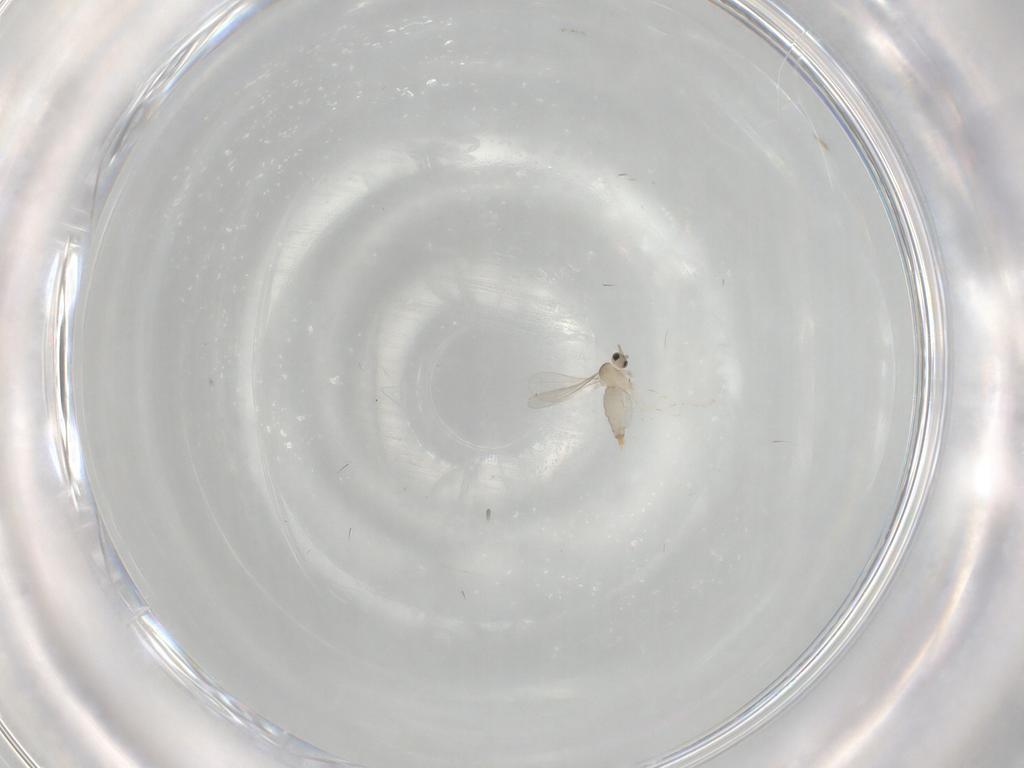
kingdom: Animalia
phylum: Arthropoda
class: Insecta
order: Diptera
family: Cecidomyiidae
